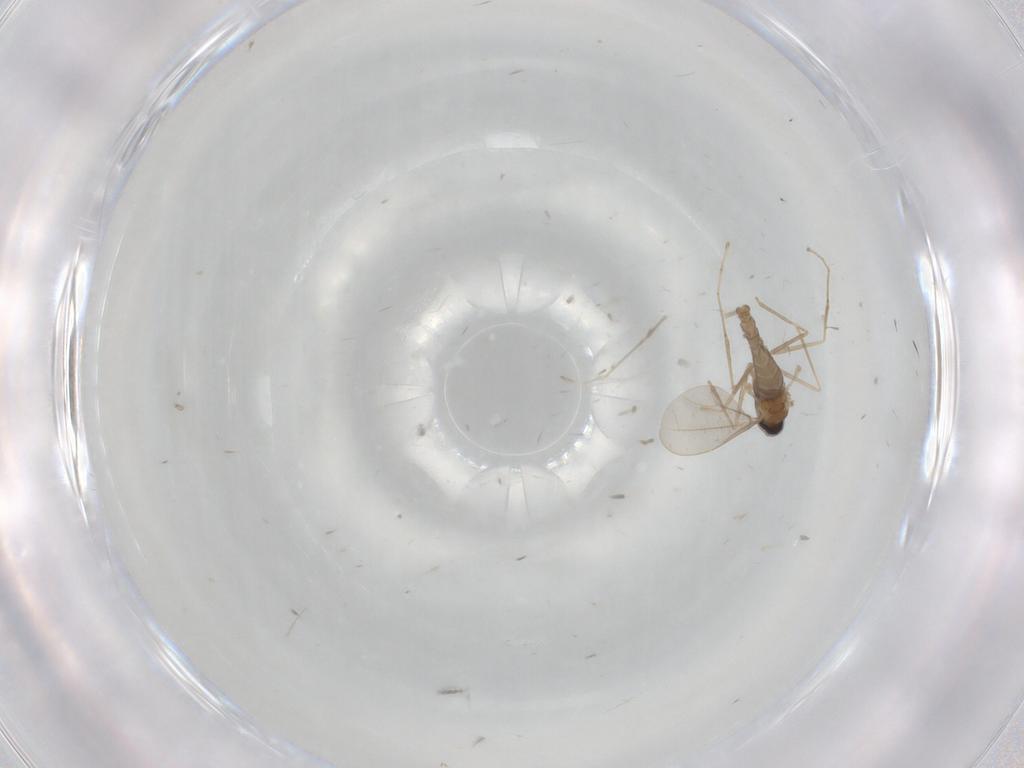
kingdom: Animalia
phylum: Arthropoda
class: Insecta
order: Diptera
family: Cecidomyiidae
